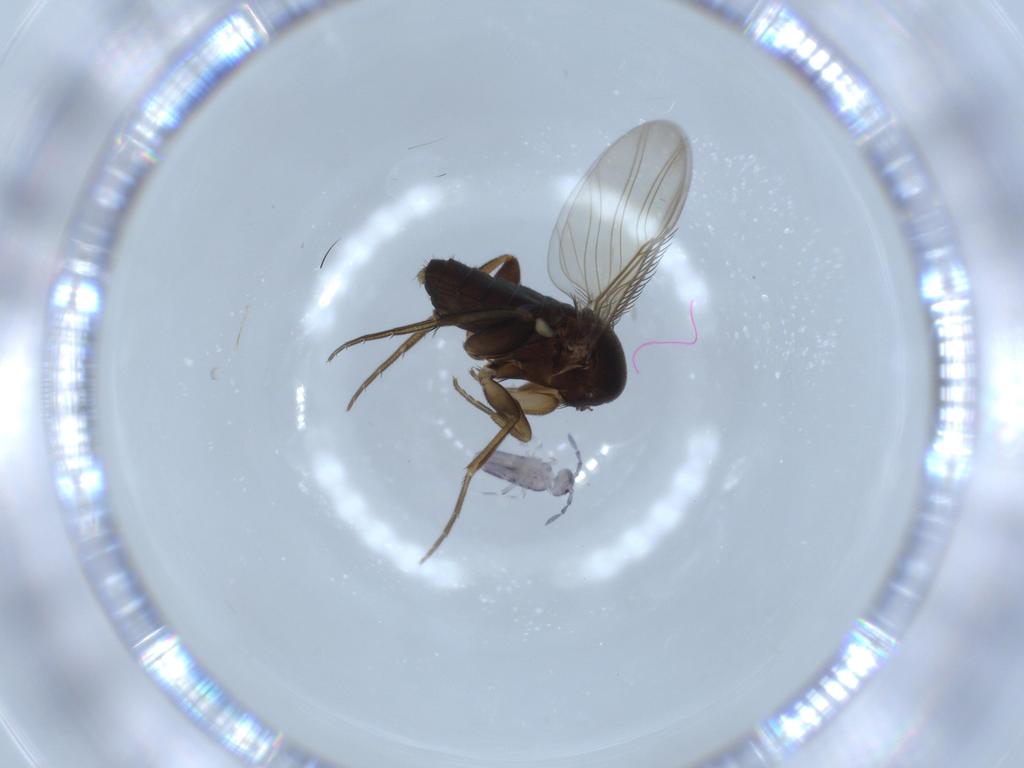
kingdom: Animalia
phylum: Arthropoda
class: Insecta
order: Diptera
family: Phoridae
